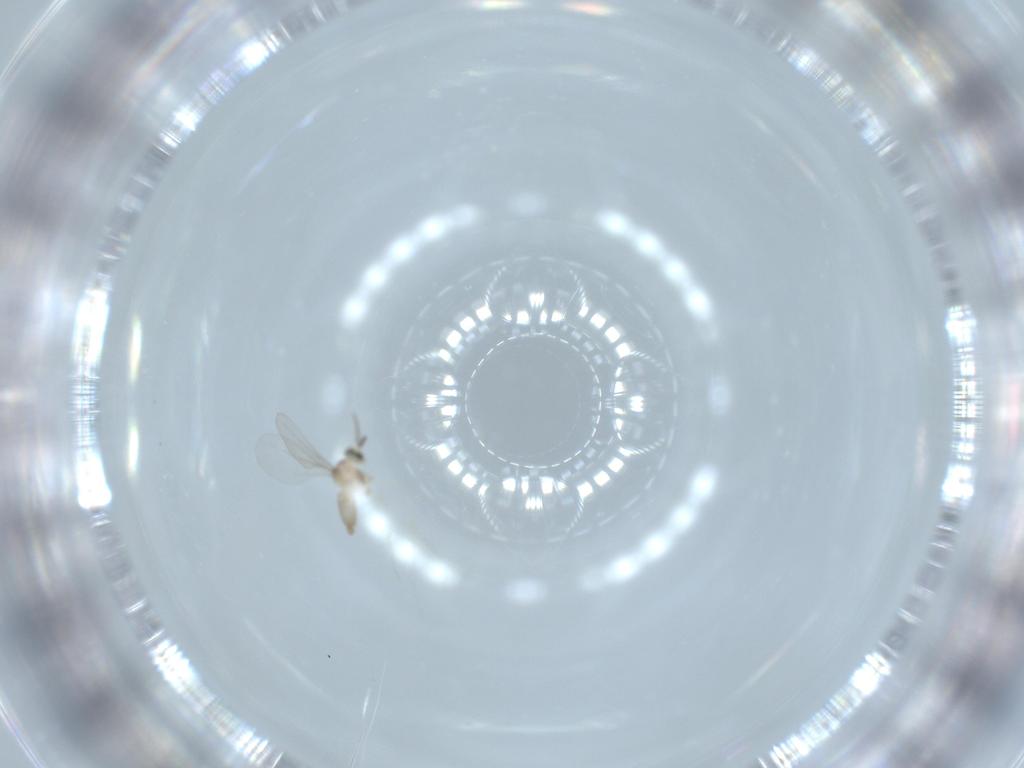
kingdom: Animalia
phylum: Arthropoda
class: Insecta
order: Diptera
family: Cecidomyiidae
